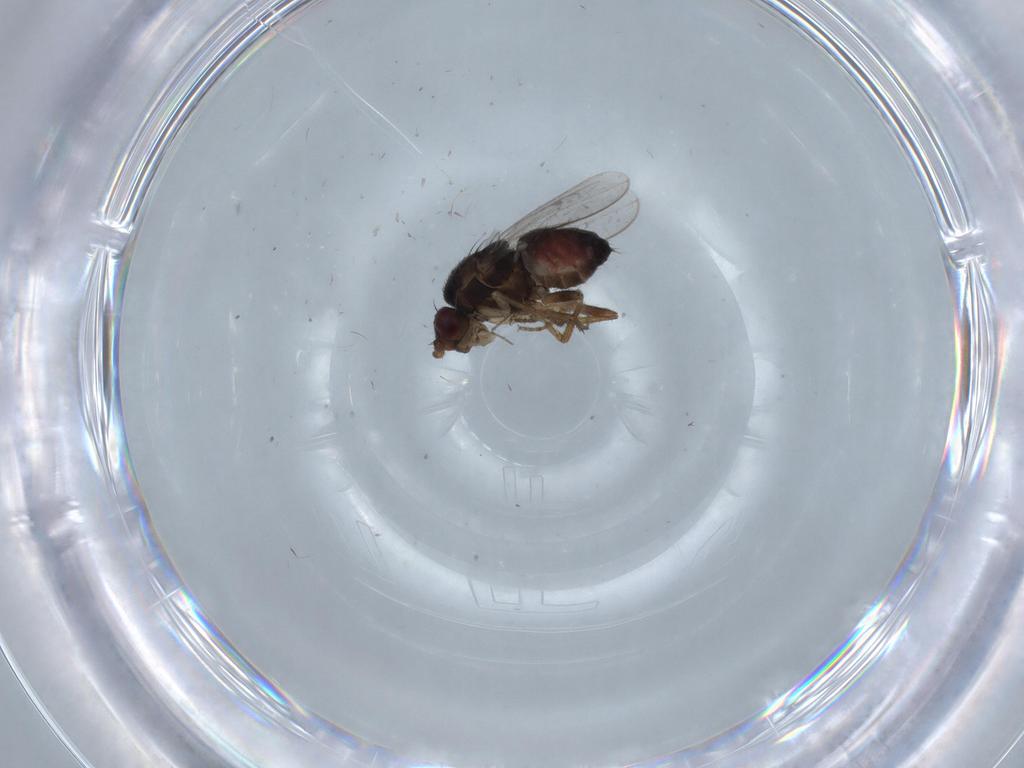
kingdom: Animalia
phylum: Arthropoda
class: Insecta
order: Diptera
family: Chironomidae
